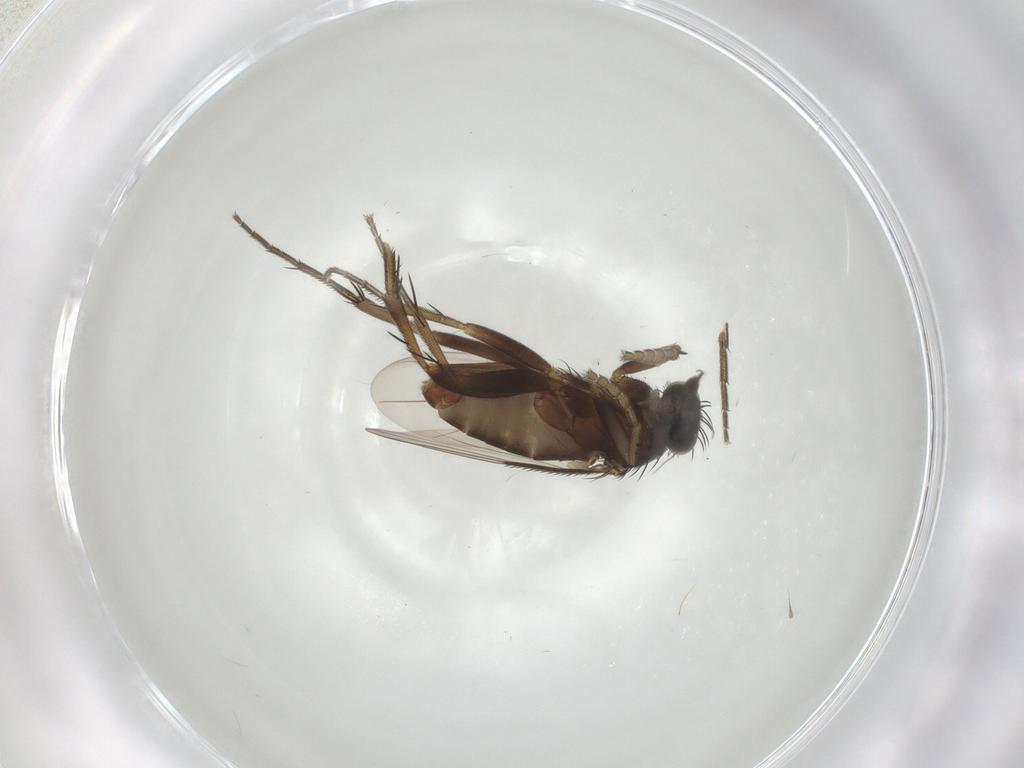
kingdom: Animalia
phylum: Arthropoda
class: Insecta
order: Diptera
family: Phoridae
